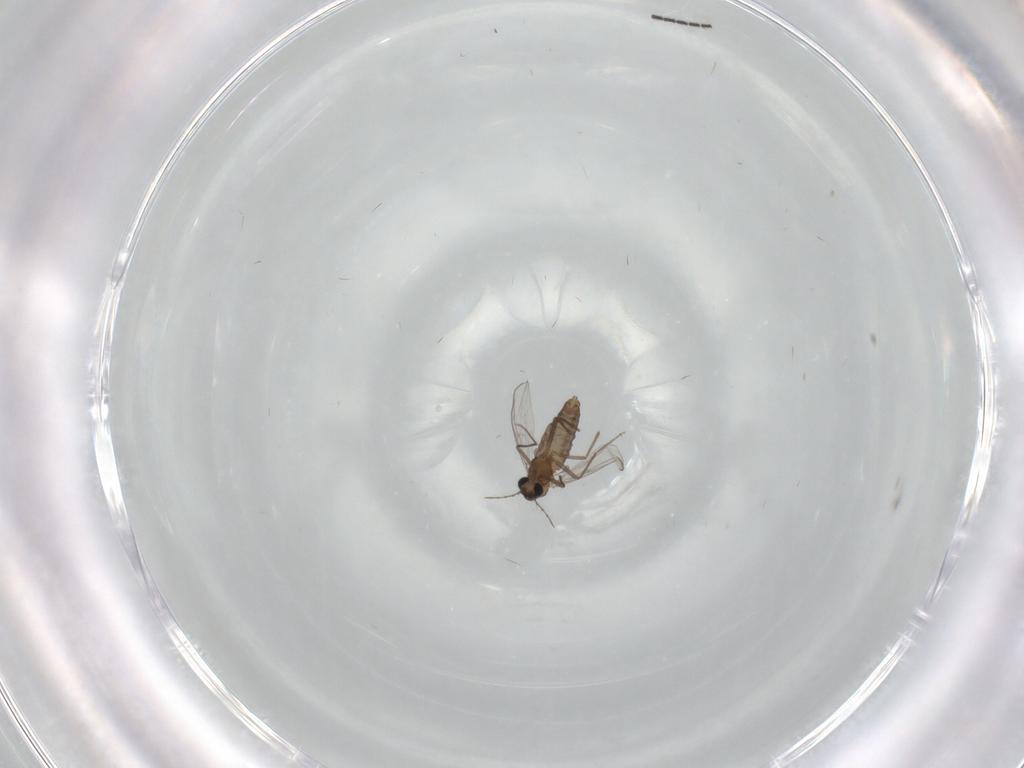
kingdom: Animalia
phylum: Arthropoda
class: Insecta
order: Diptera
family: Chironomidae
